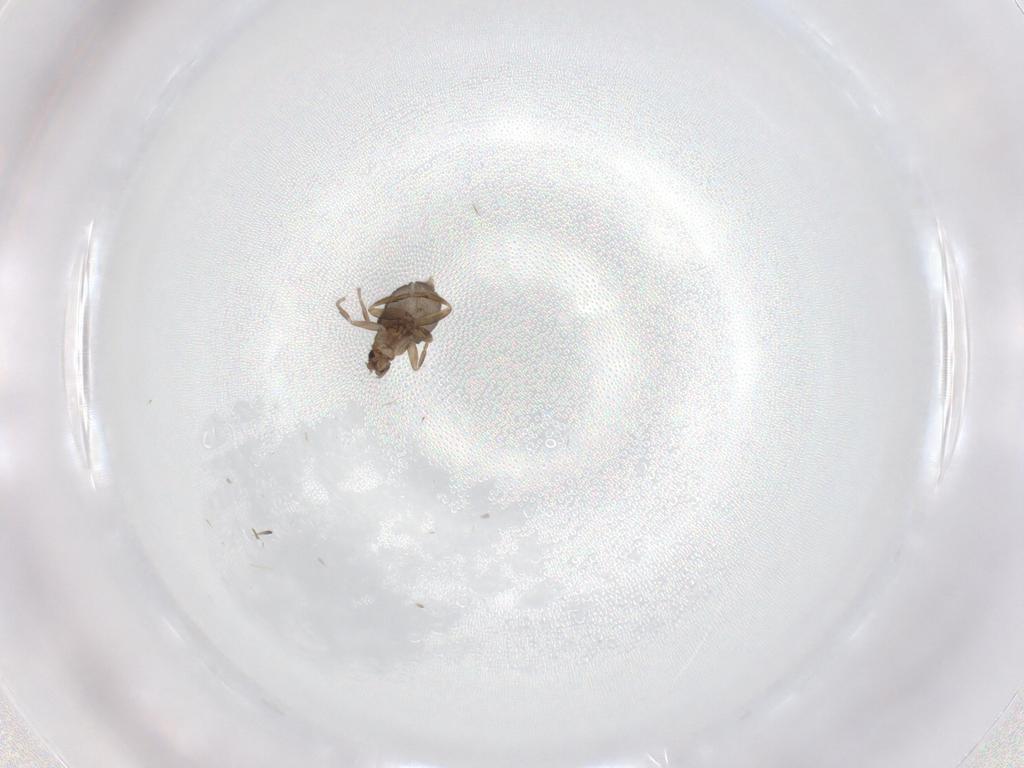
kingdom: Animalia
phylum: Arthropoda
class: Insecta
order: Diptera
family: Phoridae
